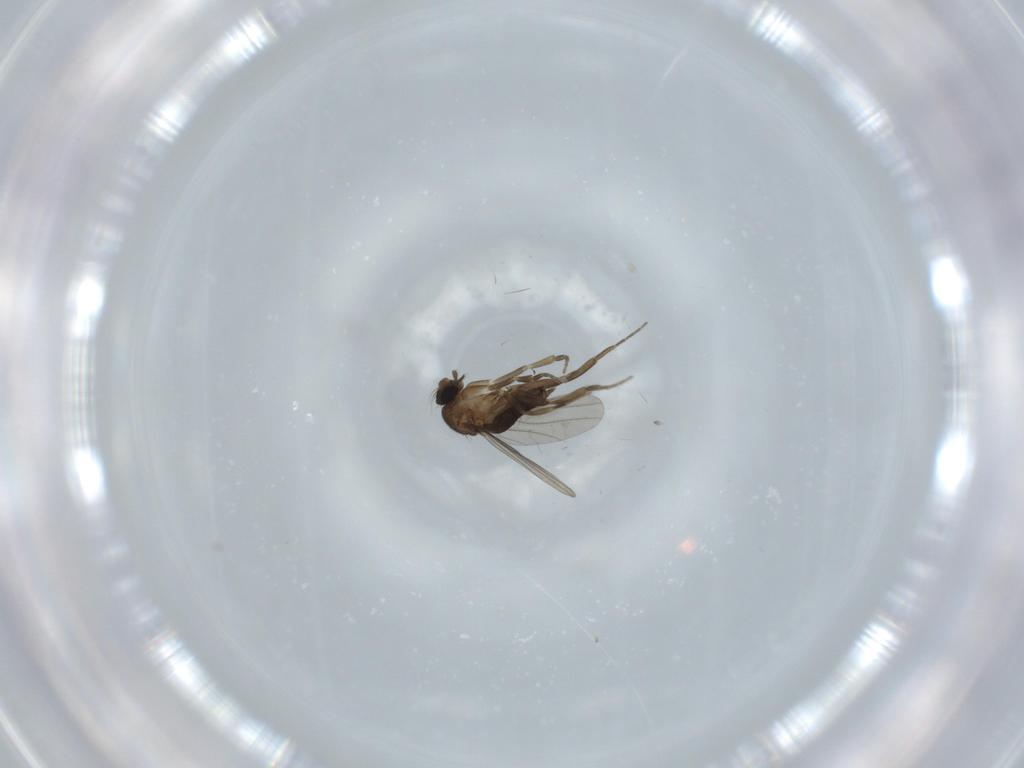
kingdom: Animalia
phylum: Arthropoda
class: Insecta
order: Diptera
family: Phoridae
